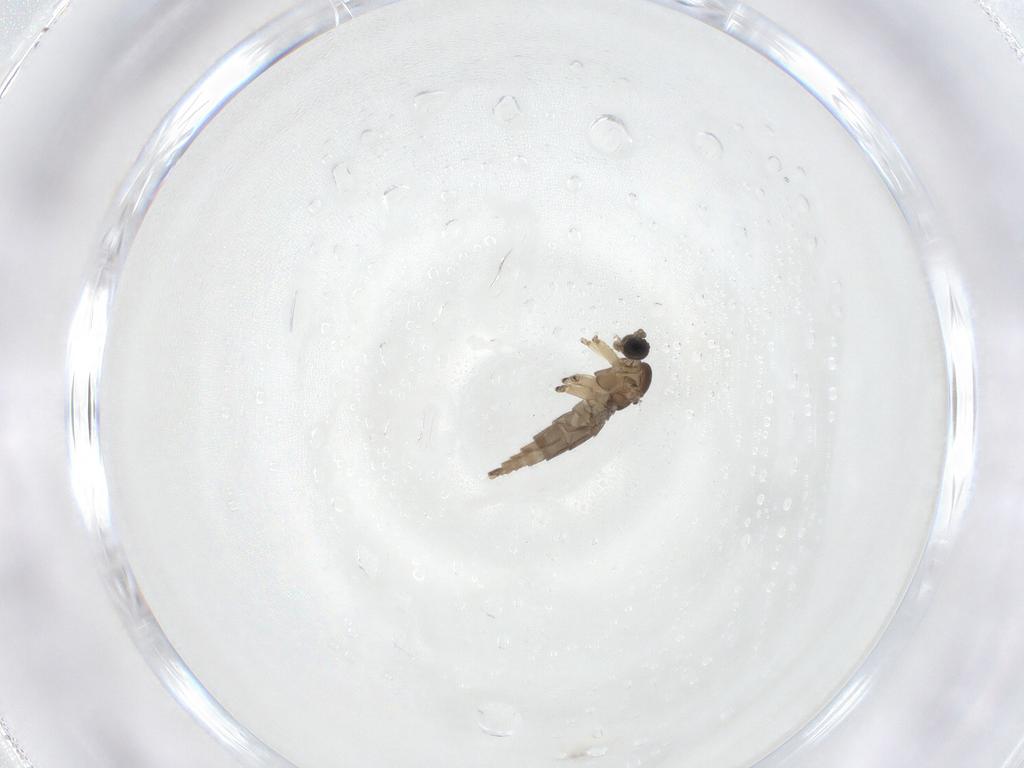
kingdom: Animalia
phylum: Arthropoda
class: Insecta
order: Diptera
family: Sciaridae
